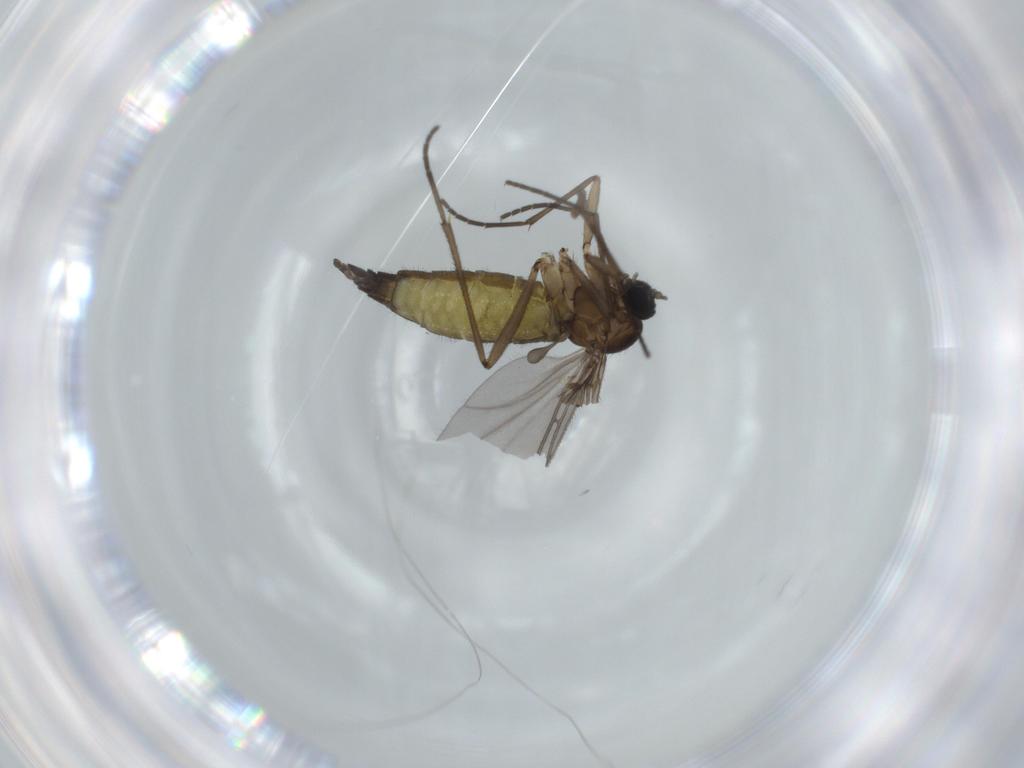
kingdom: Animalia
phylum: Arthropoda
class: Insecta
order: Diptera
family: Sciaridae
